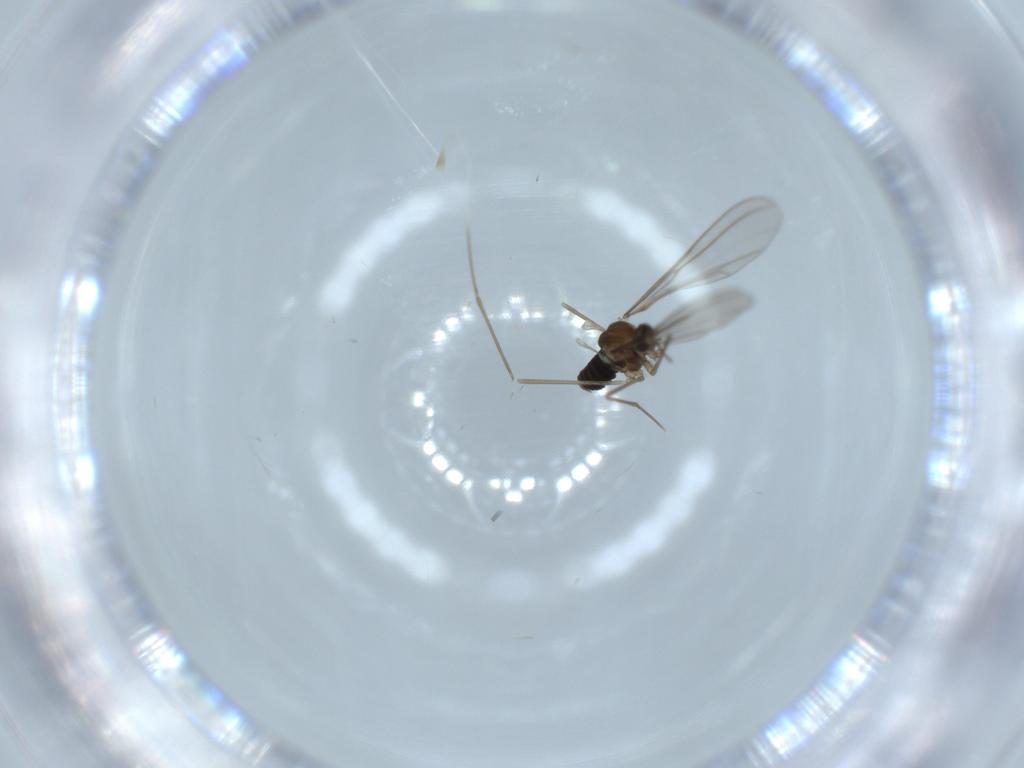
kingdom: Animalia
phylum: Arthropoda
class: Insecta
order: Diptera
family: Cecidomyiidae
